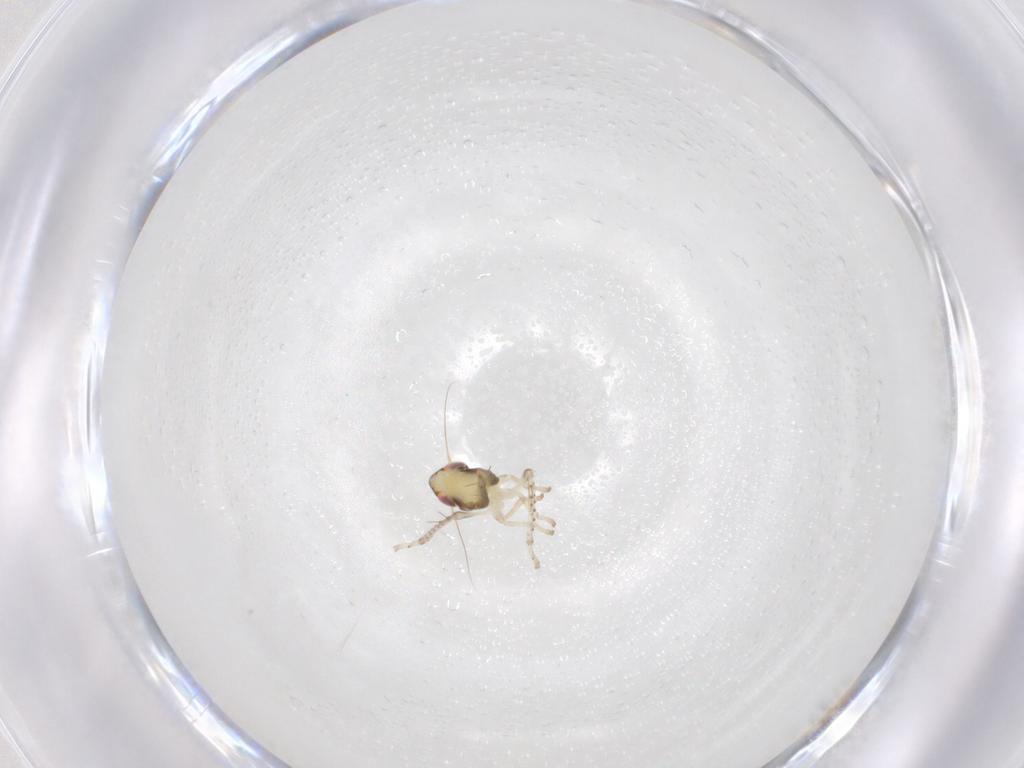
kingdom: Animalia
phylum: Arthropoda
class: Insecta
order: Hemiptera
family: Cicadellidae
